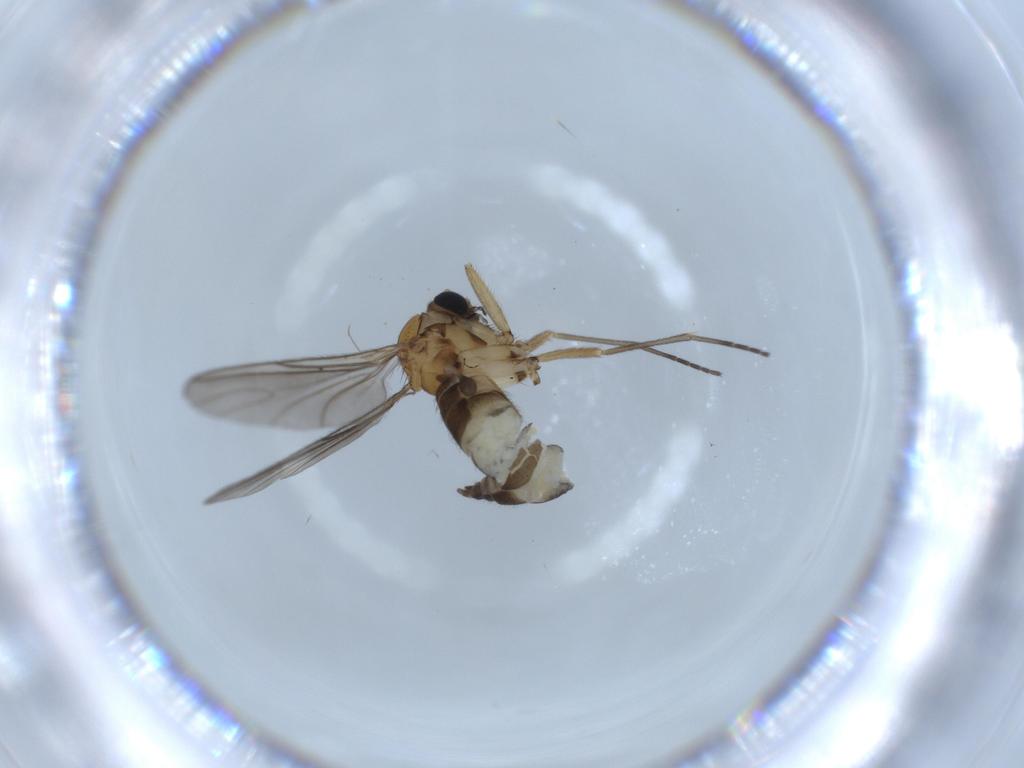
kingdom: Animalia
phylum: Arthropoda
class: Insecta
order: Diptera
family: Sciaridae
